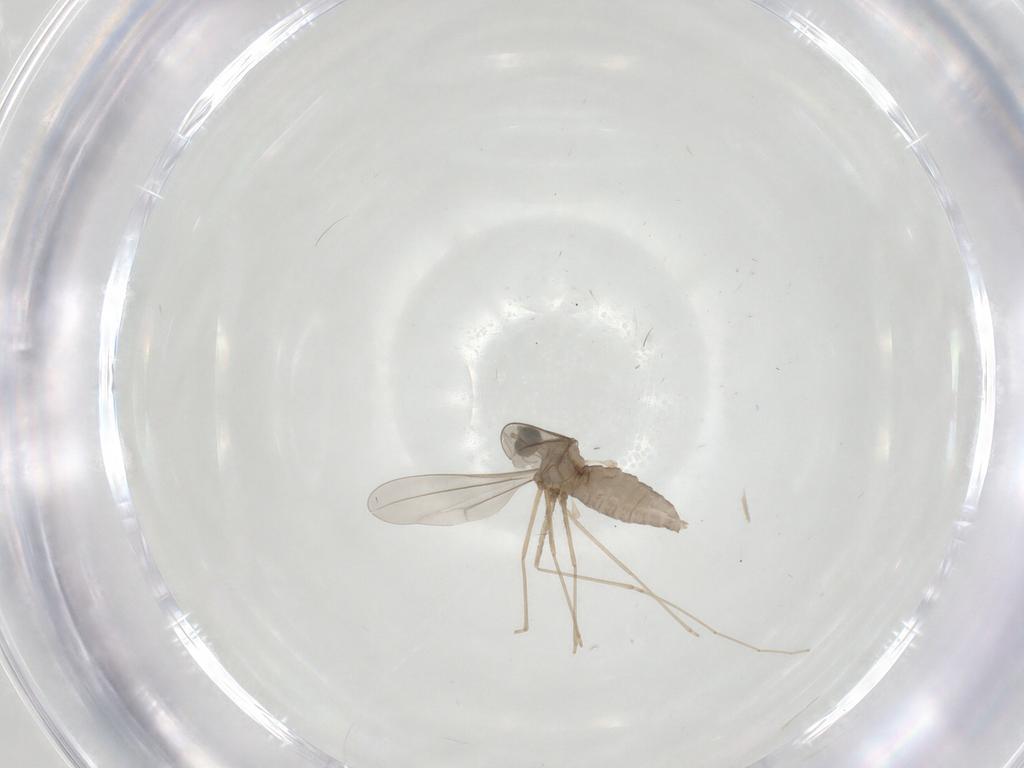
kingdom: Animalia
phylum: Arthropoda
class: Insecta
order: Diptera
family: Cecidomyiidae
